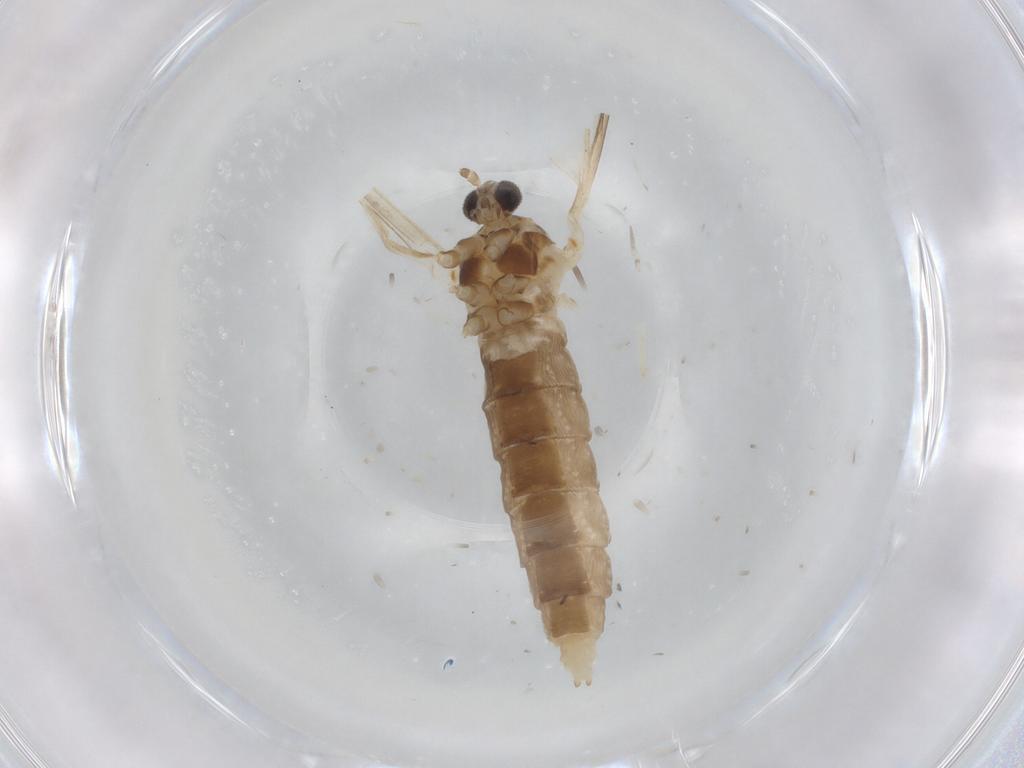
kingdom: Animalia
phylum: Arthropoda
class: Insecta
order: Diptera
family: Cecidomyiidae
